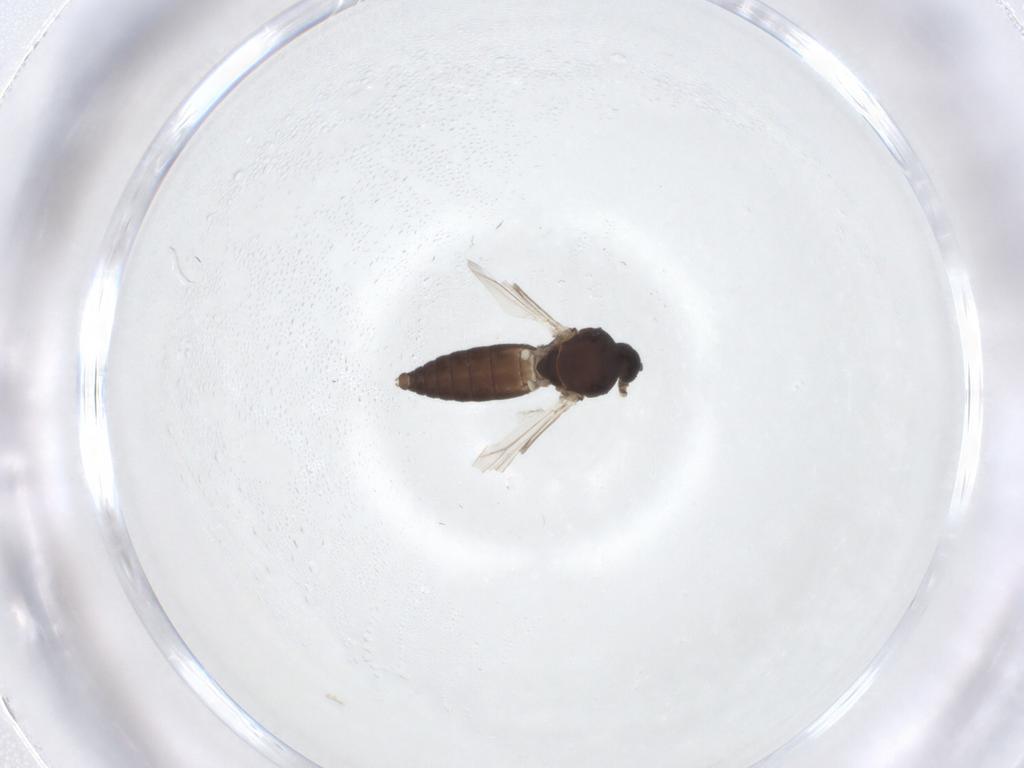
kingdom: Animalia
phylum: Arthropoda
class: Insecta
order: Diptera
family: Ceratopogonidae
